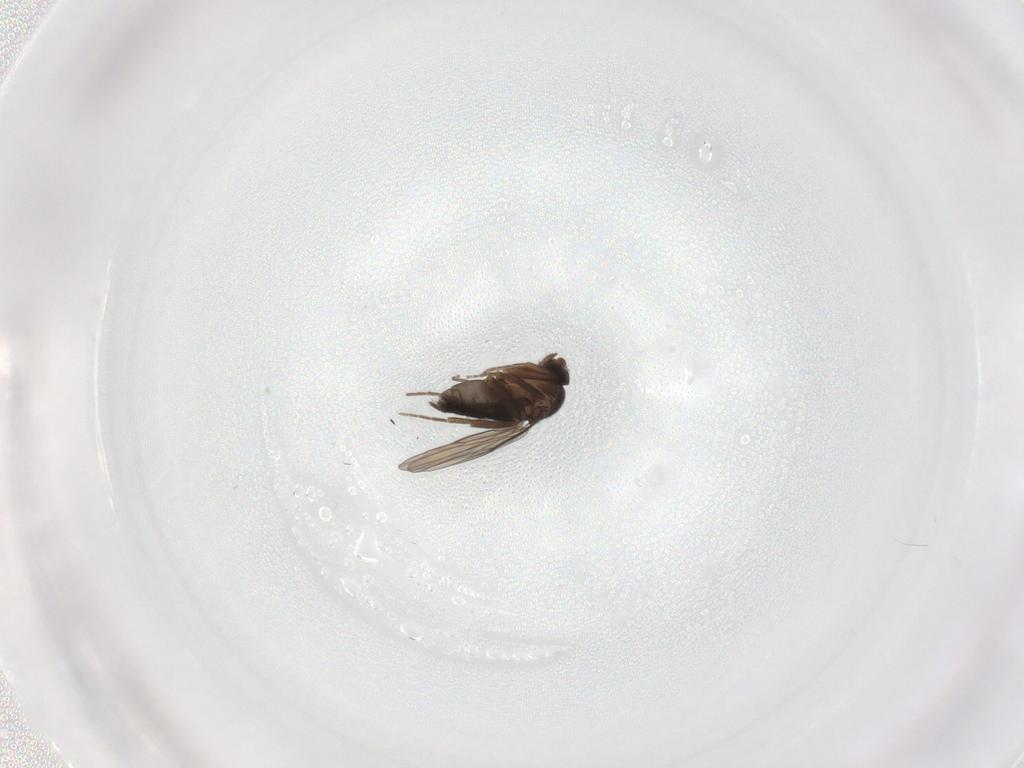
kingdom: Animalia
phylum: Arthropoda
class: Insecta
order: Diptera
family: Phoridae
